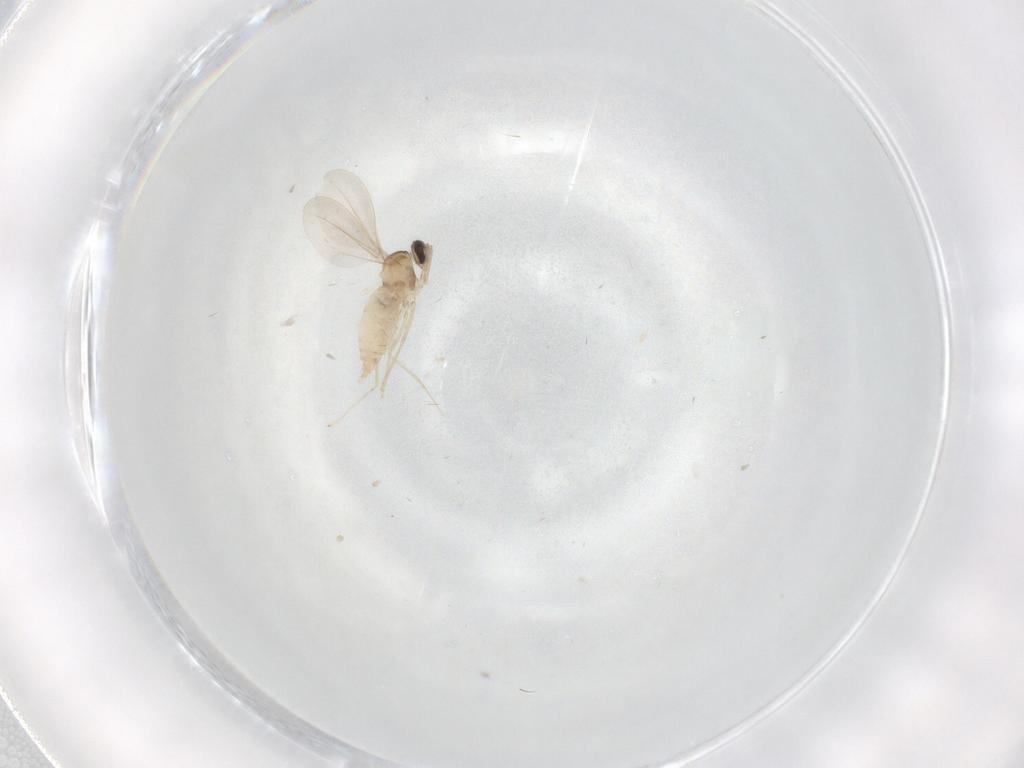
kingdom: Animalia
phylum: Arthropoda
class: Insecta
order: Diptera
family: Cecidomyiidae
